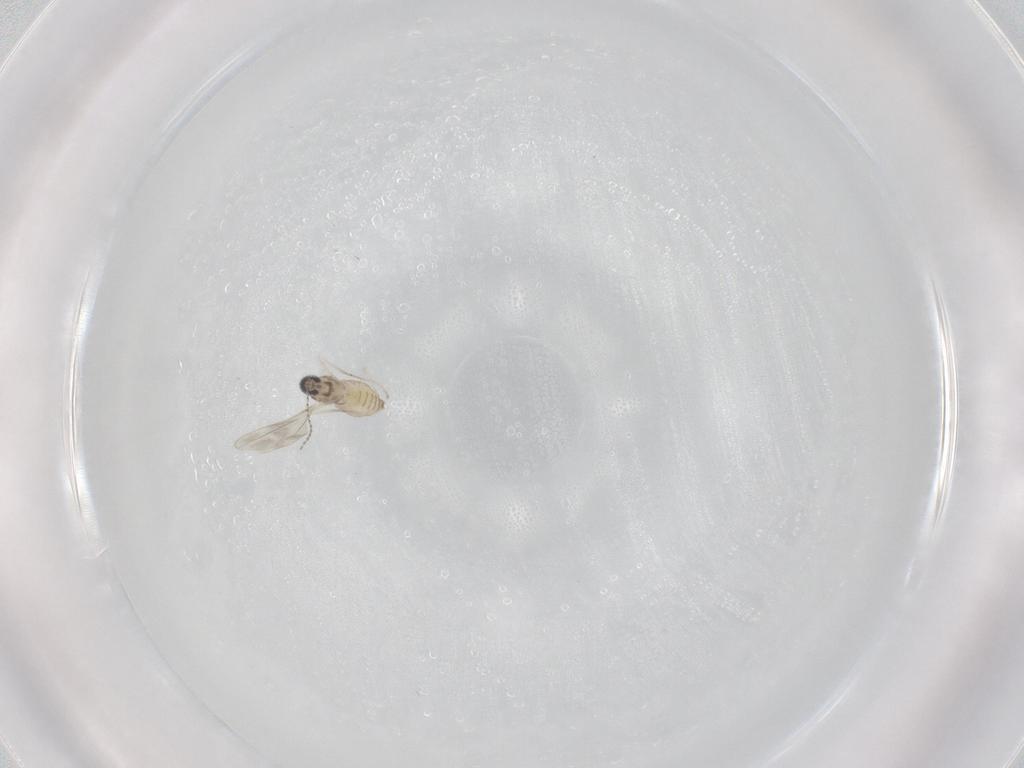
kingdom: Animalia
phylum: Arthropoda
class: Insecta
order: Diptera
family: Cecidomyiidae
